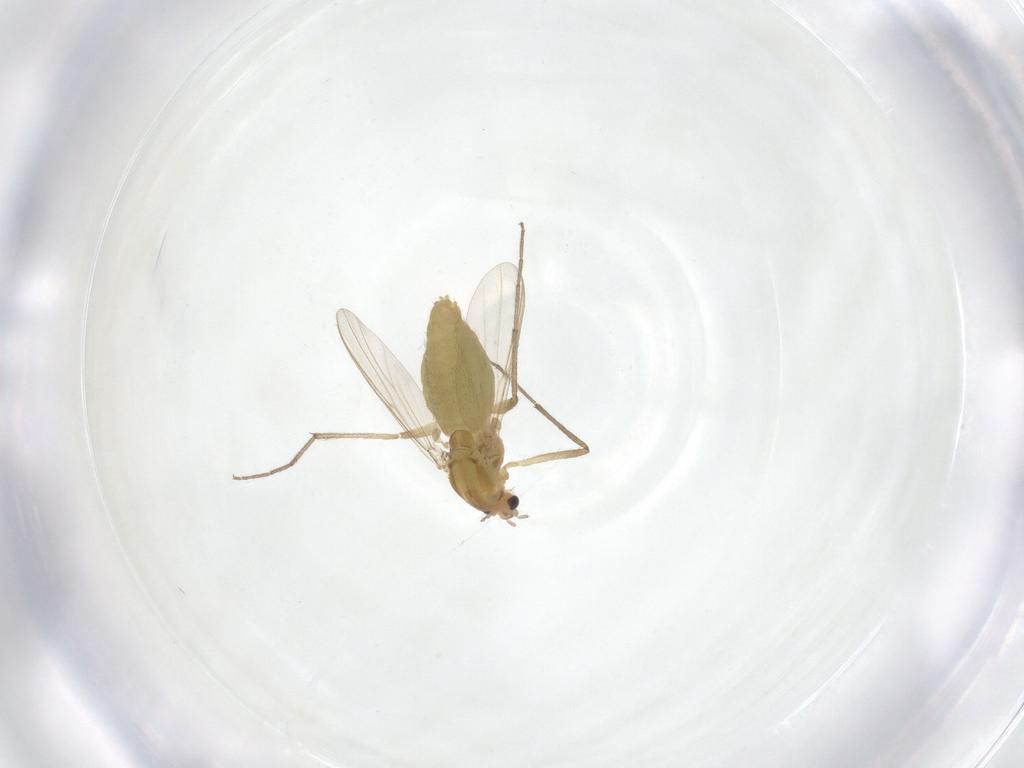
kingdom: Animalia
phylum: Arthropoda
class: Insecta
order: Diptera
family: Chironomidae
